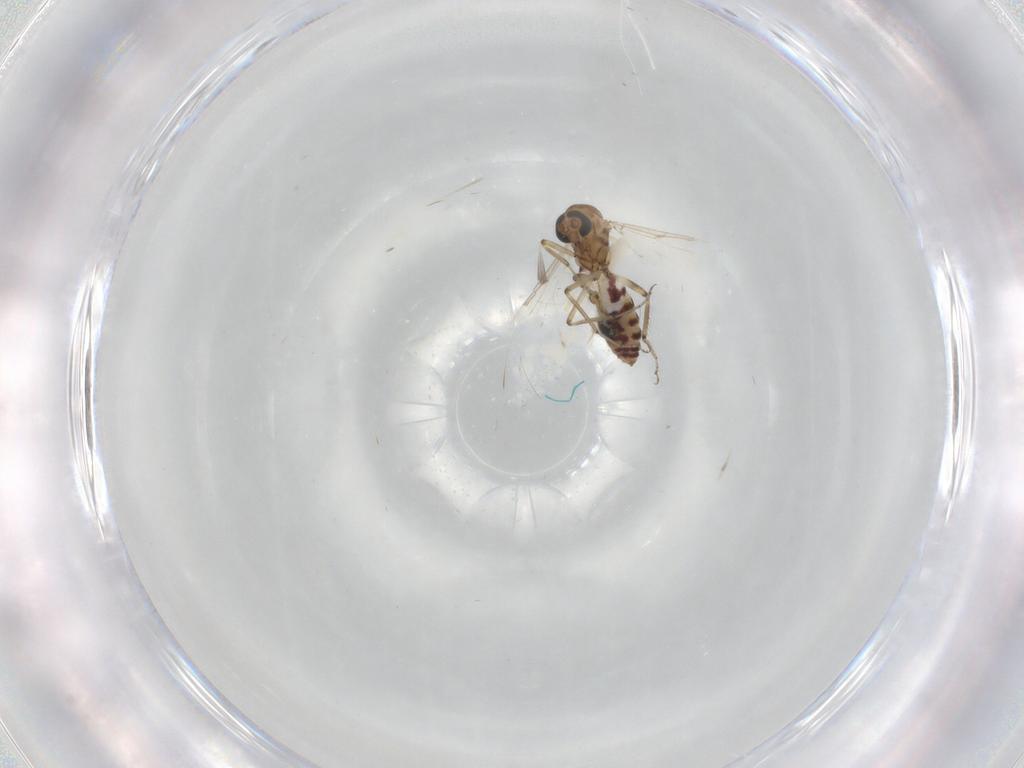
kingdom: Animalia
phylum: Arthropoda
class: Insecta
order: Diptera
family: Ceratopogonidae
